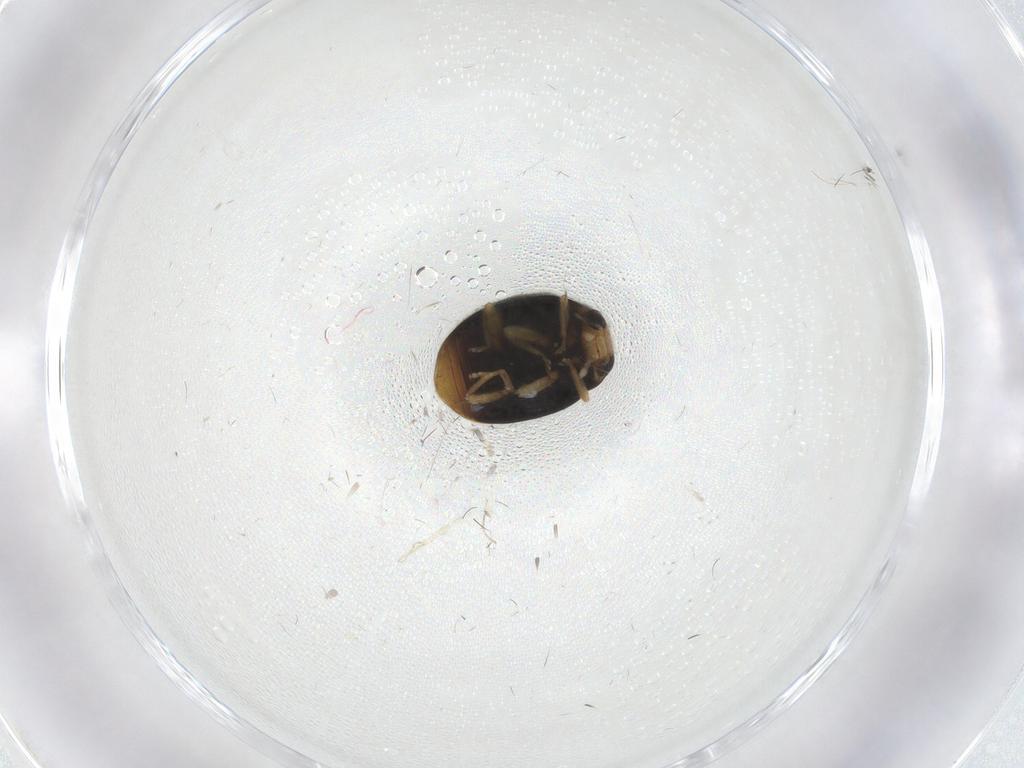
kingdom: Animalia
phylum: Arthropoda
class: Insecta
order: Coleoptera
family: Coccinellidae
